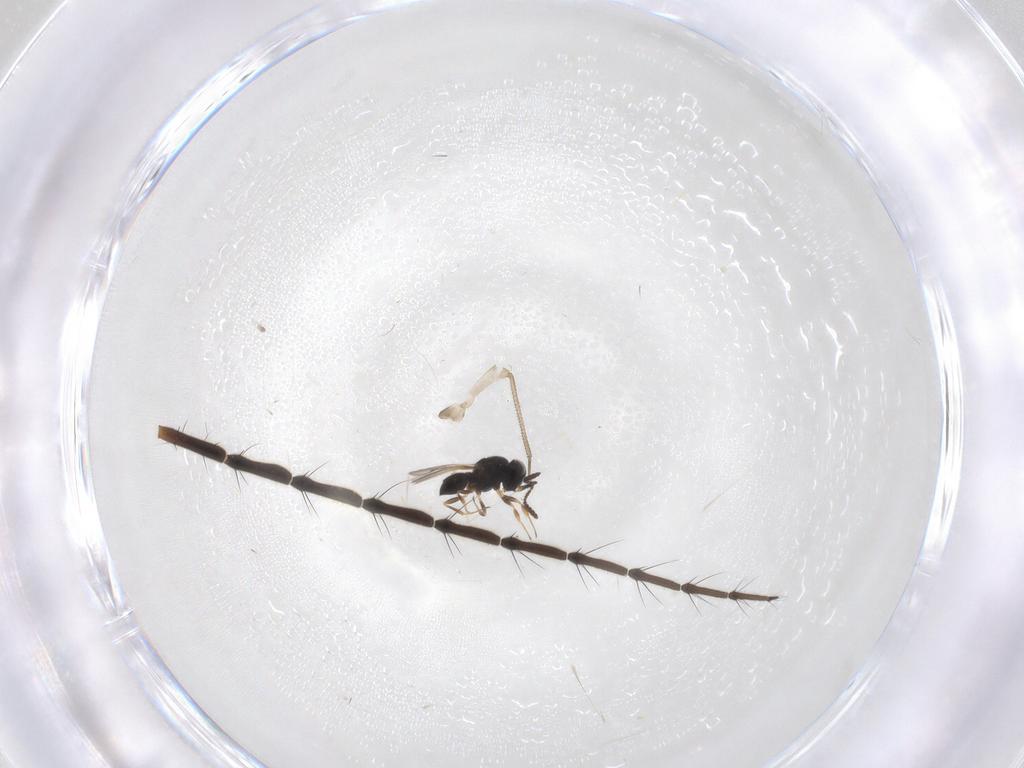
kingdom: Animalia
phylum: Arthropoda
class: Insecta
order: Hymenoptera
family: Scelionidae
